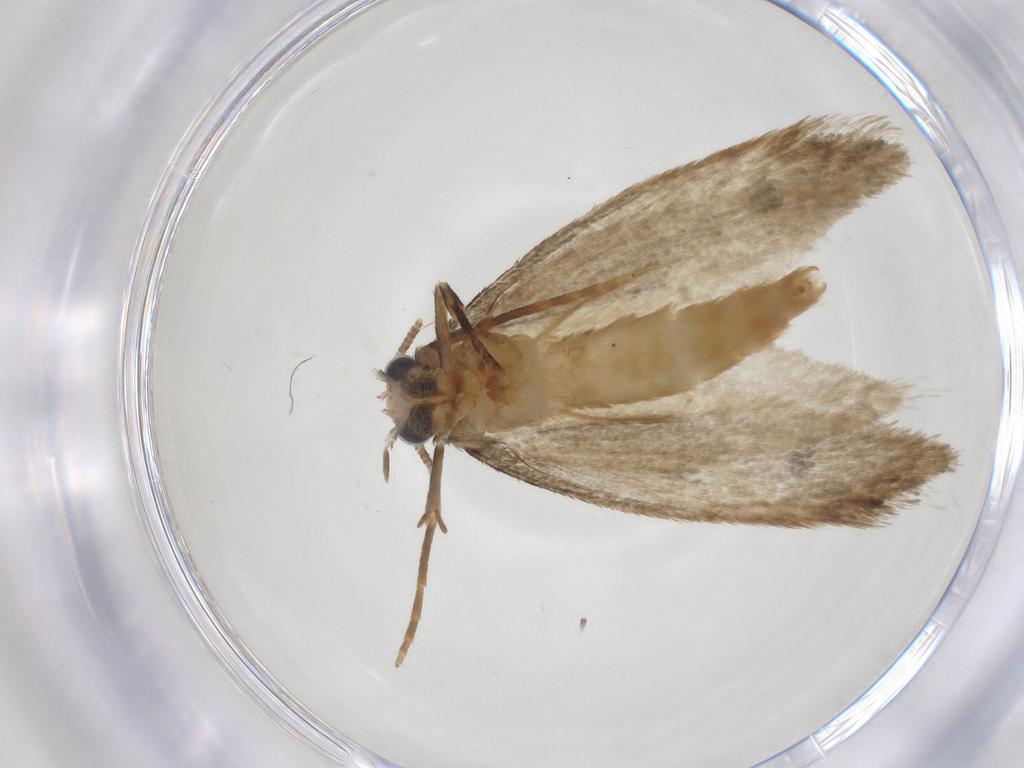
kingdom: Animalia
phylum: Arthropoda
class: Insecta
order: Lepidoptera
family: Tineidae
